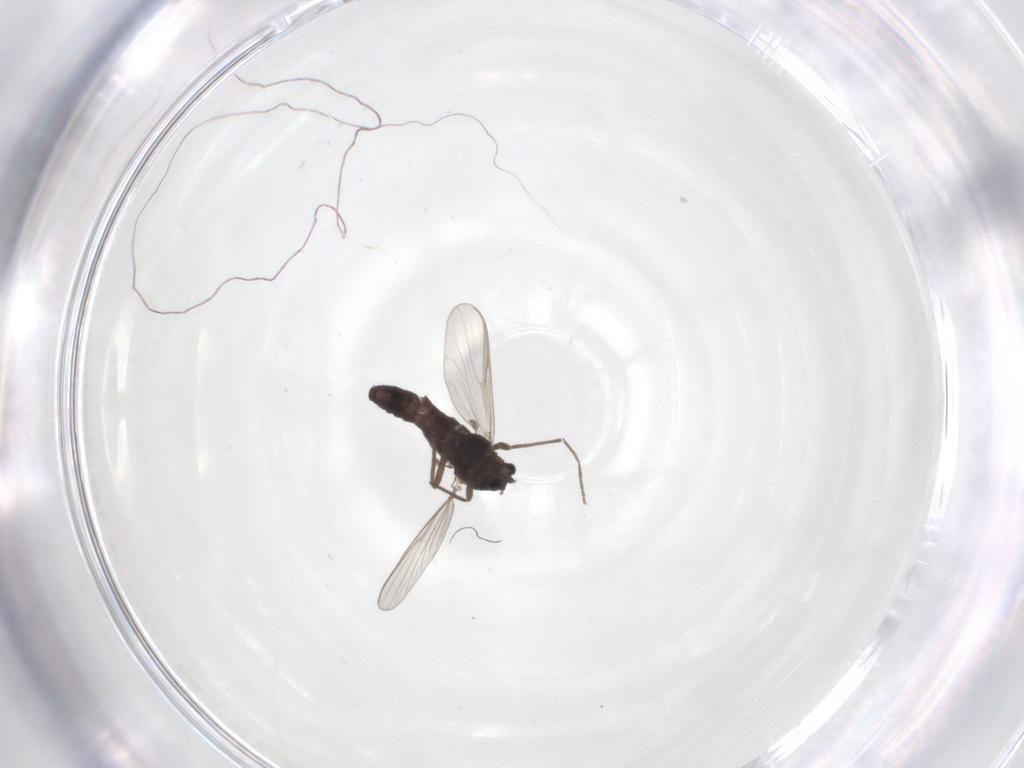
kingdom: Animalia
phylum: Arthropoda
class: Insecta
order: Diptera
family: Chironomidae
